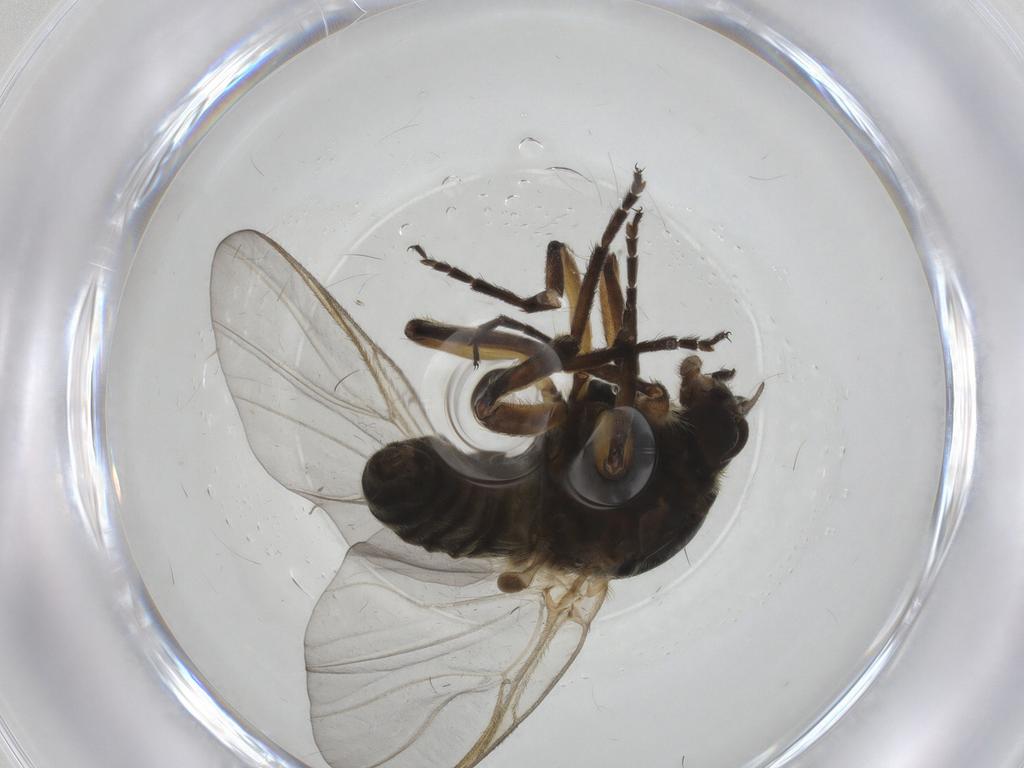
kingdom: Animalia
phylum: Arthropoda
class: Insecta
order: Diptera
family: Simuliidae
